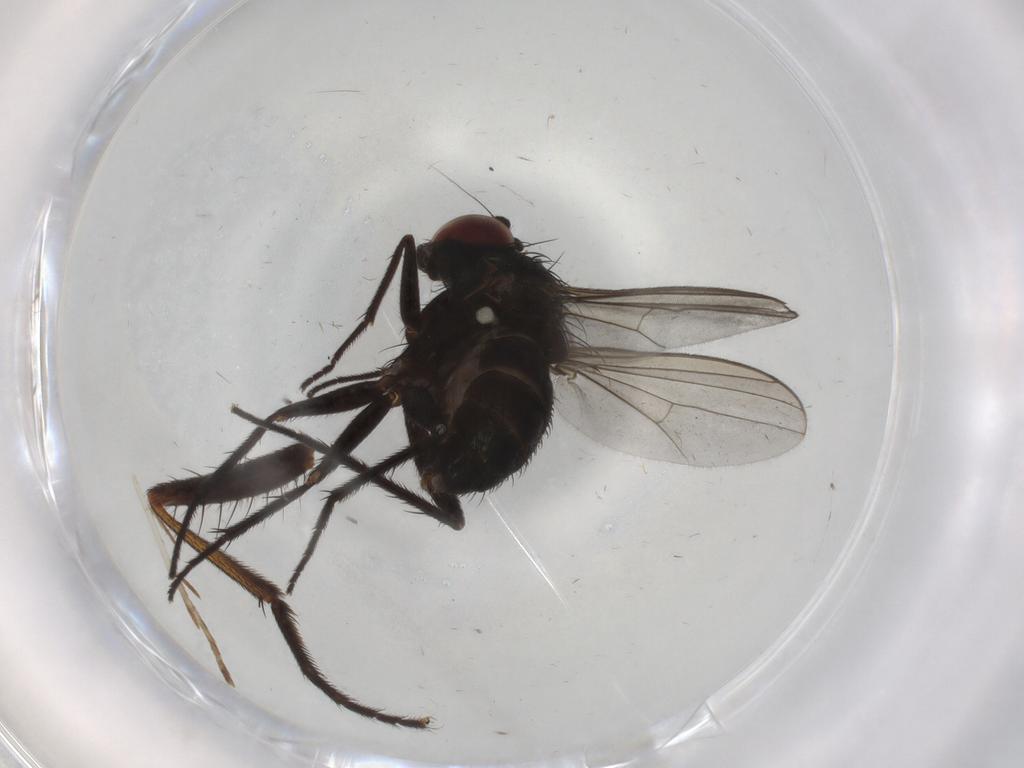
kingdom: Animalia
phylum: Arthropoda
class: Insecta
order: Diptera
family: Dolichopodidae
